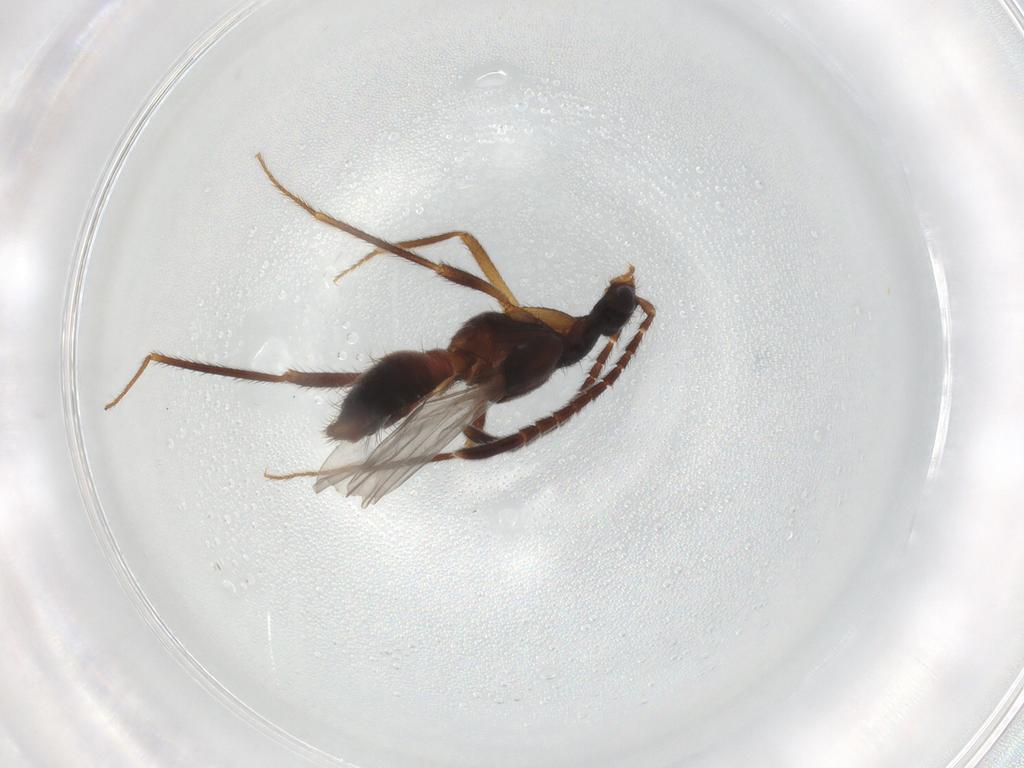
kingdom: Animalia
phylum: Arthropoda
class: Insecta
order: Coleoptera
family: Staphylinidae
